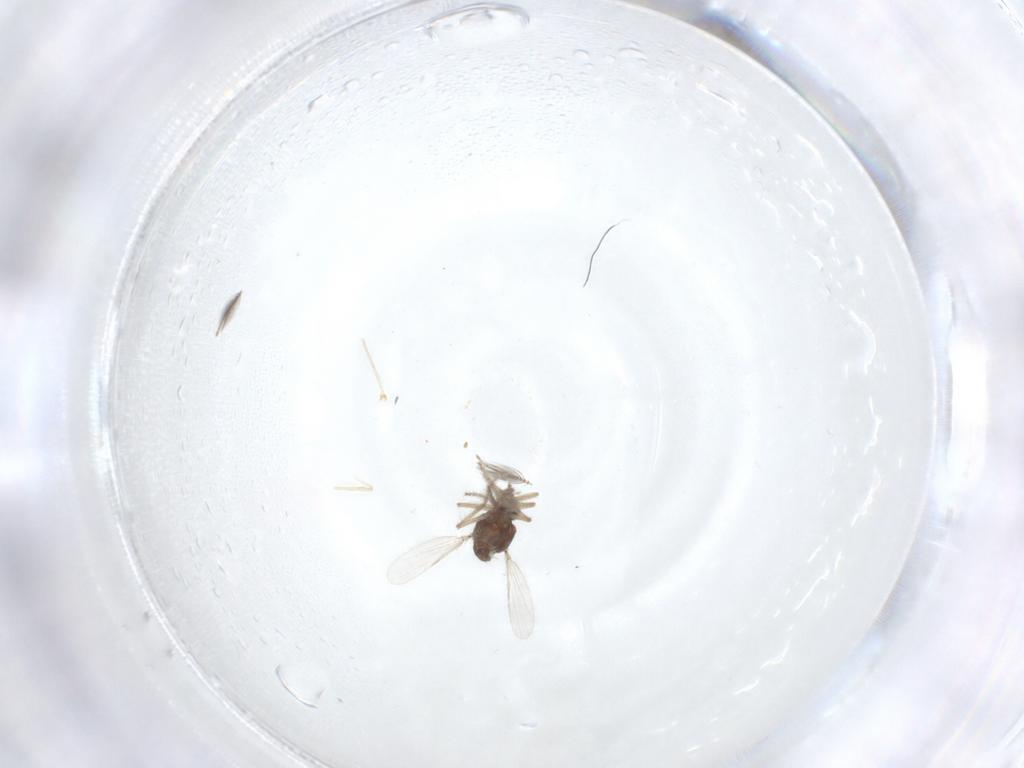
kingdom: Animalia
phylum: Arthropoda
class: Insecta
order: Diptera
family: Ceratopogonidae
